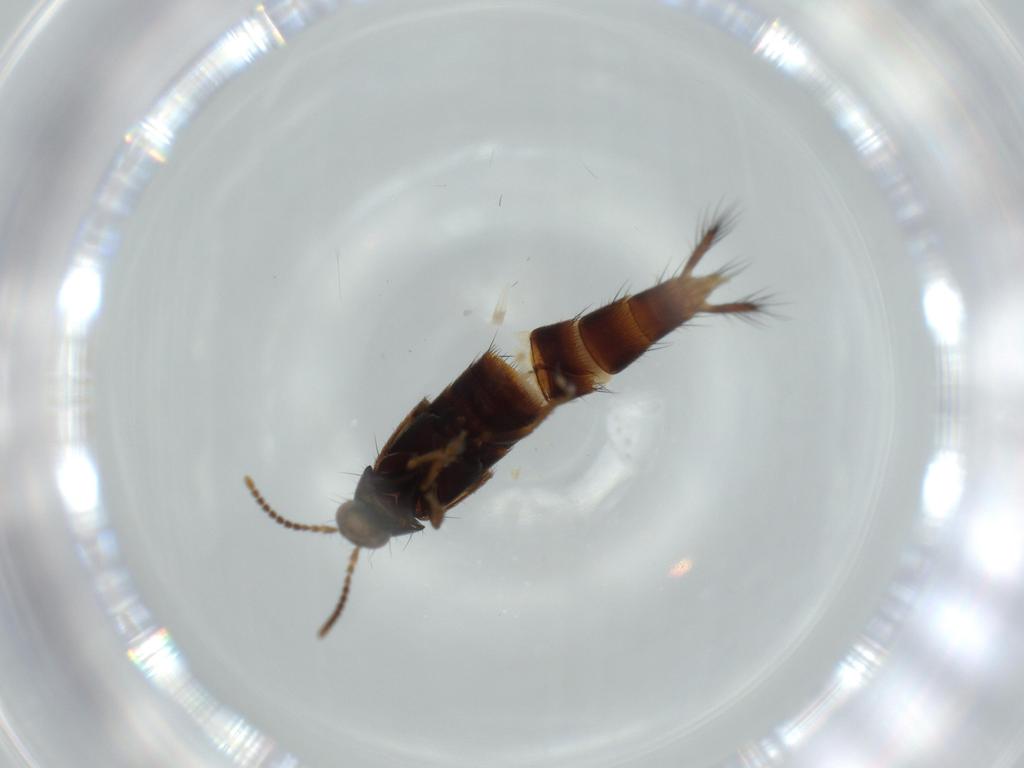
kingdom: Animalia
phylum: Arthropoda
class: Insecta
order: Coleoptera
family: Staphylinidae
